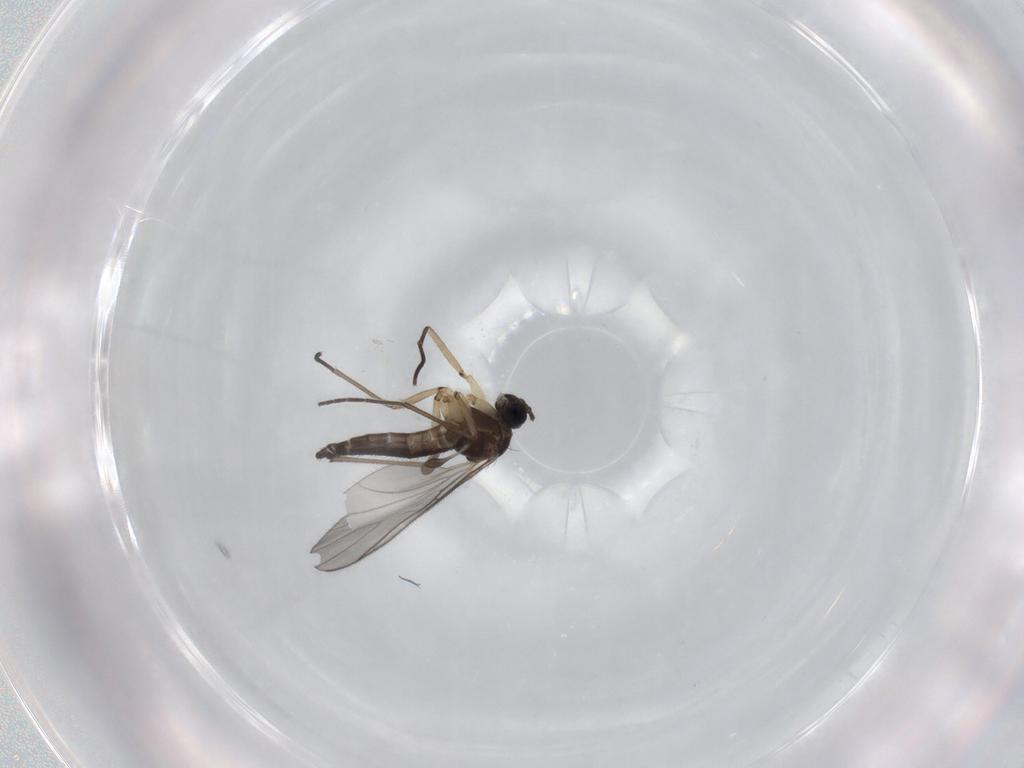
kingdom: Animalia
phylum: Arthropoda
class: Insecta
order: Diptera
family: Sciaridae
